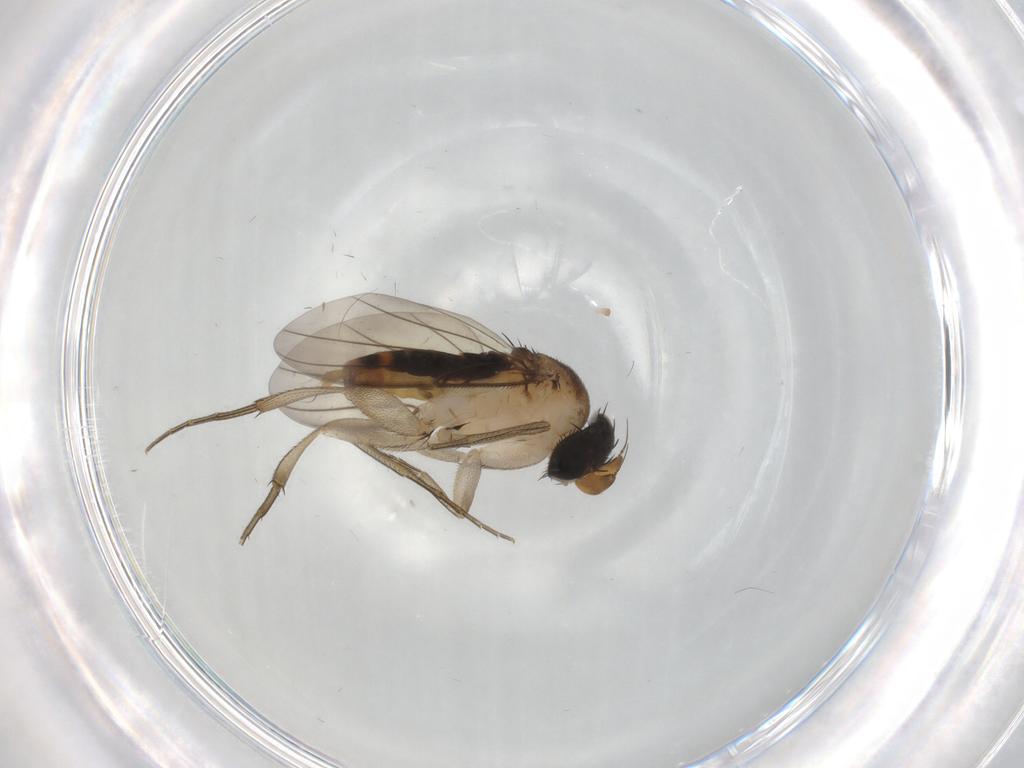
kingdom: Animalia
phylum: Arthropoda
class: Insecta
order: Diptera
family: Phoridae
